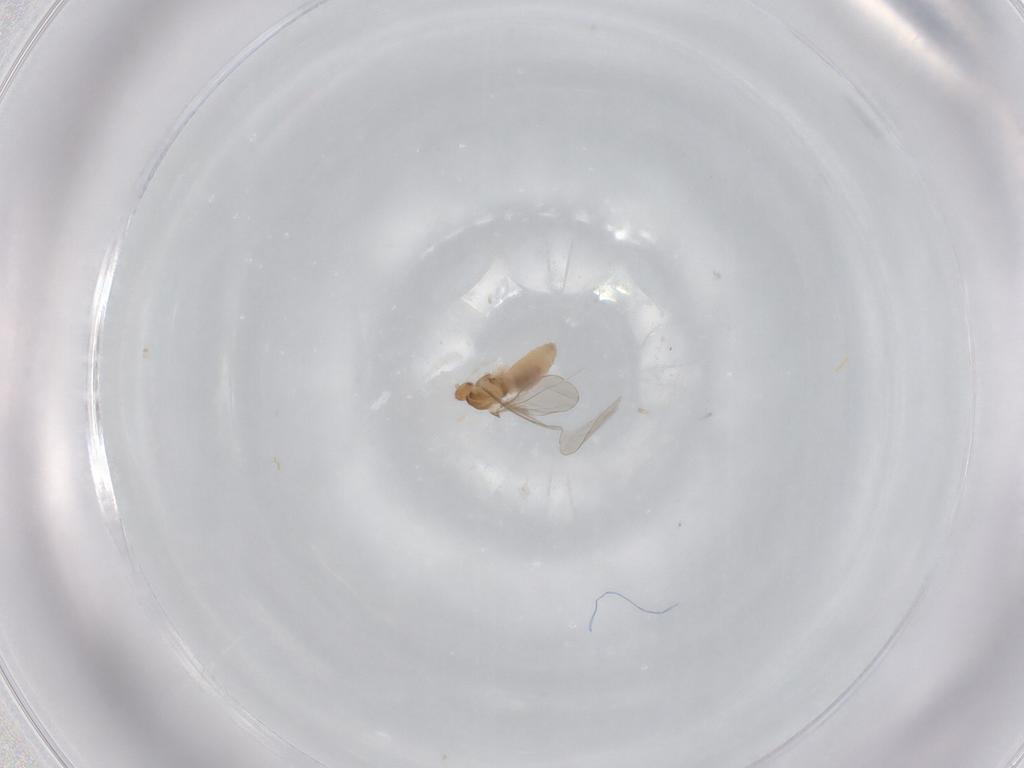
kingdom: Animalia
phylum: Arthropoda
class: Insecta
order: Diptera
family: Cecidomyiidae
